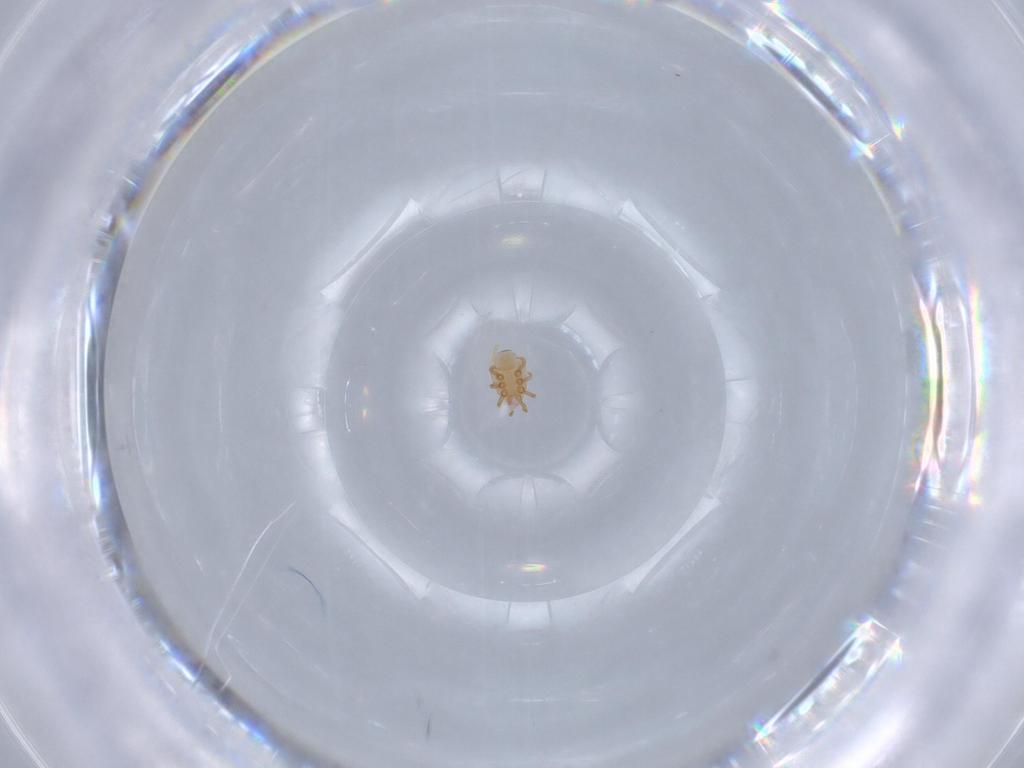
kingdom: Animalia
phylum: Arthropoda
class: Arachnida
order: Mesostigmata
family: Dinychidae
